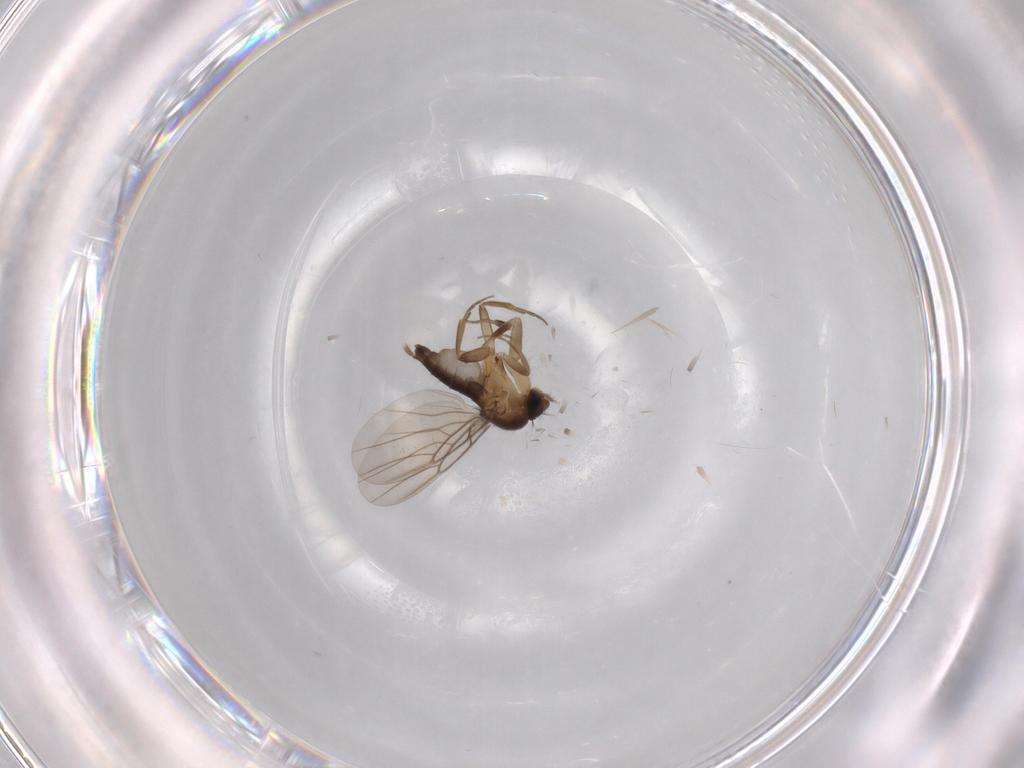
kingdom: Animalia
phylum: Arthropoda
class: Insecta
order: Diptera
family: Phoridae
